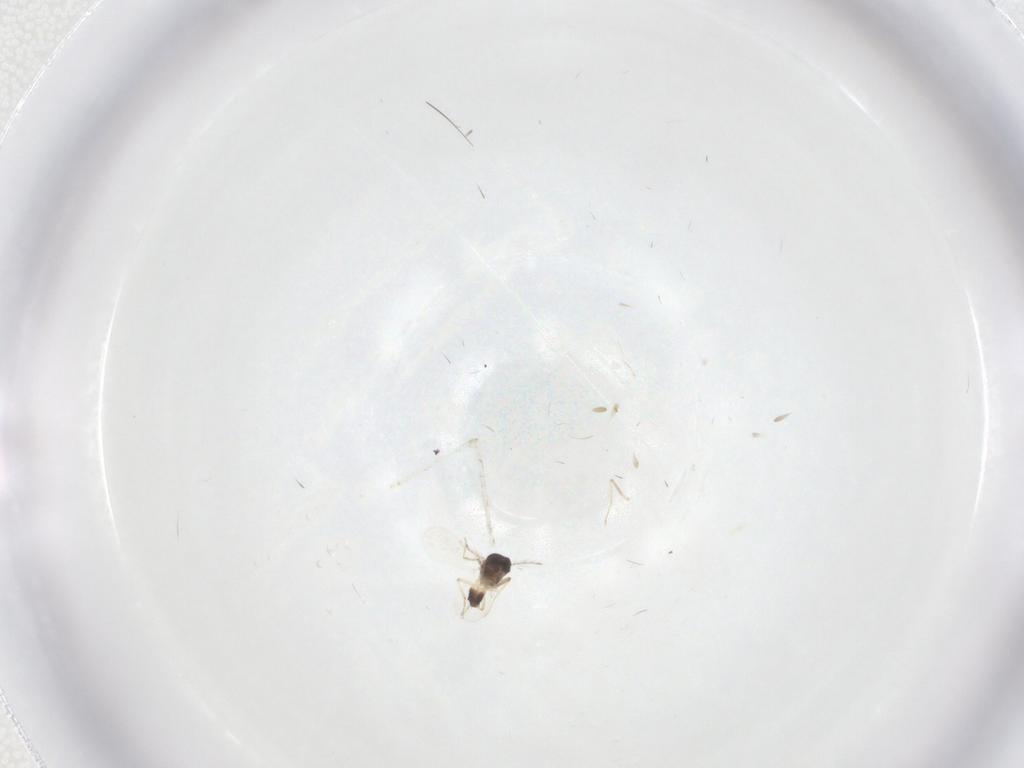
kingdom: Animalia
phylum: Arthropoda
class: Insecta
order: Diptera
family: Ceratopogonidae
